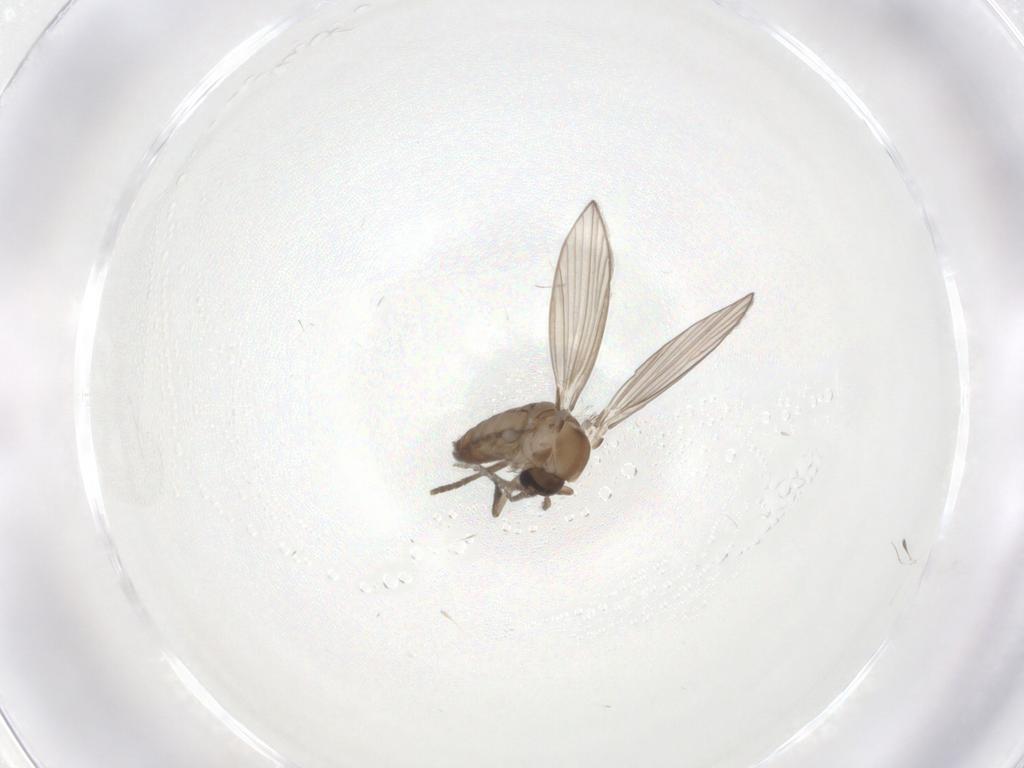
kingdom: Animalia
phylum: Arthropoda
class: Insecta
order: Diptera
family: Psychodidae
